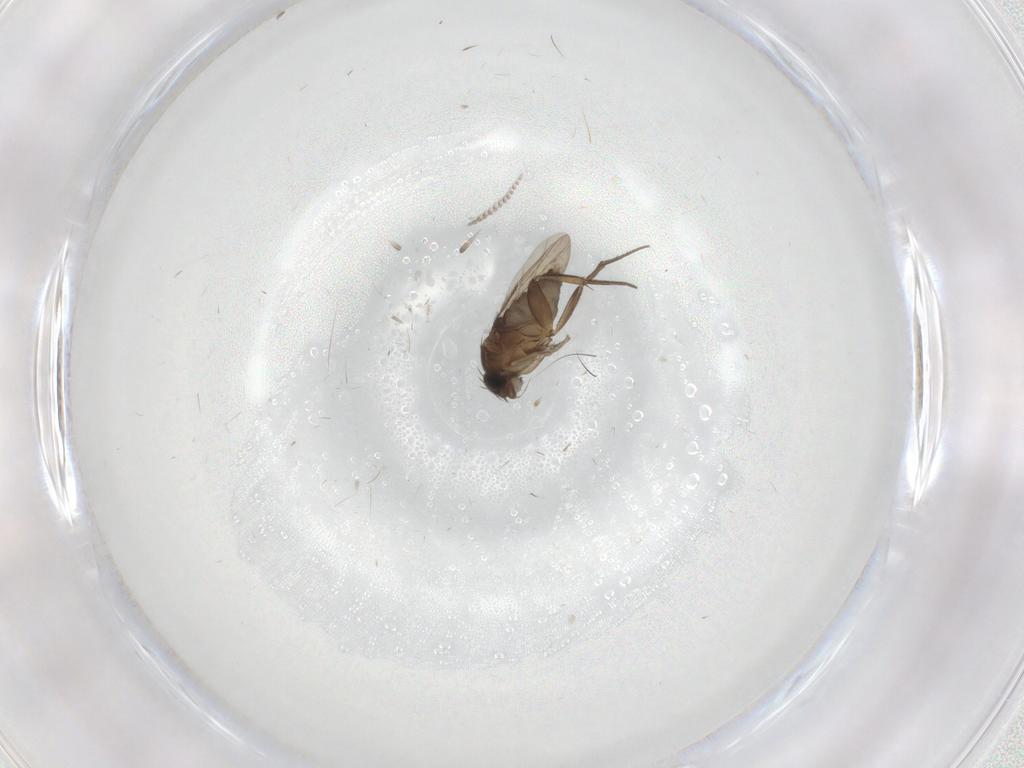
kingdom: Animalia
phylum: Arthropoda
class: Insecta
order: Diptera
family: Phoridae
